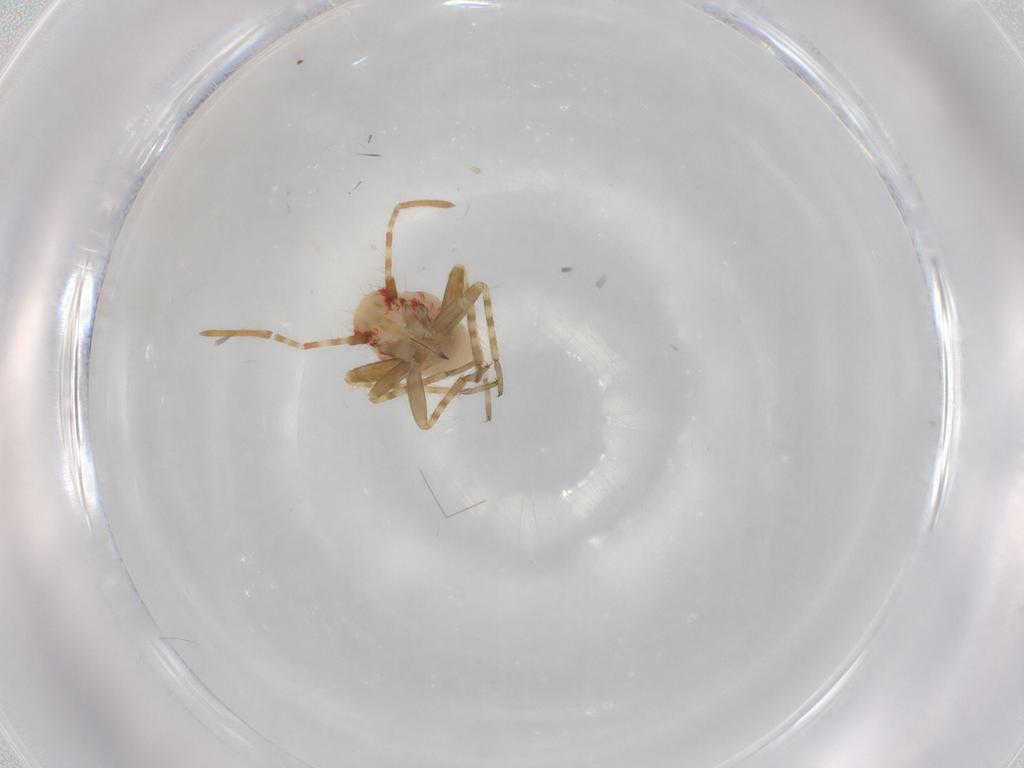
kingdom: Animalia
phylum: Arthropoda
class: Insecta
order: Hemiptera
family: Miridae
